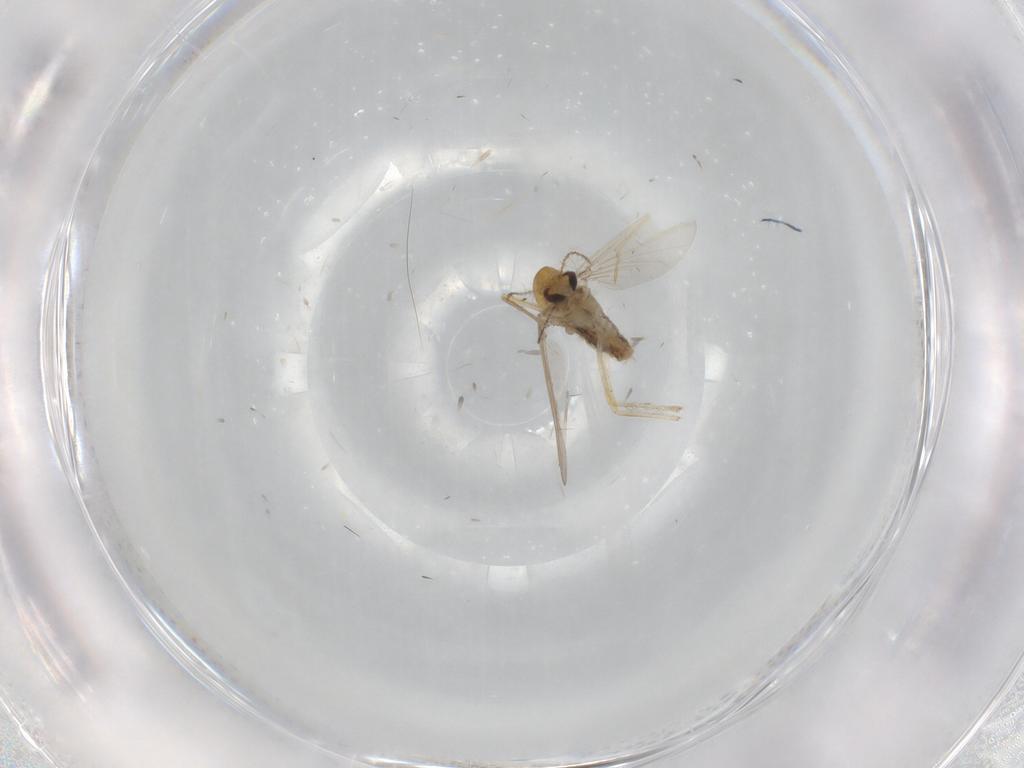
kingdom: Animalia
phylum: Arthropoda
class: Insecta
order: Diptera
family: Chironomidae
